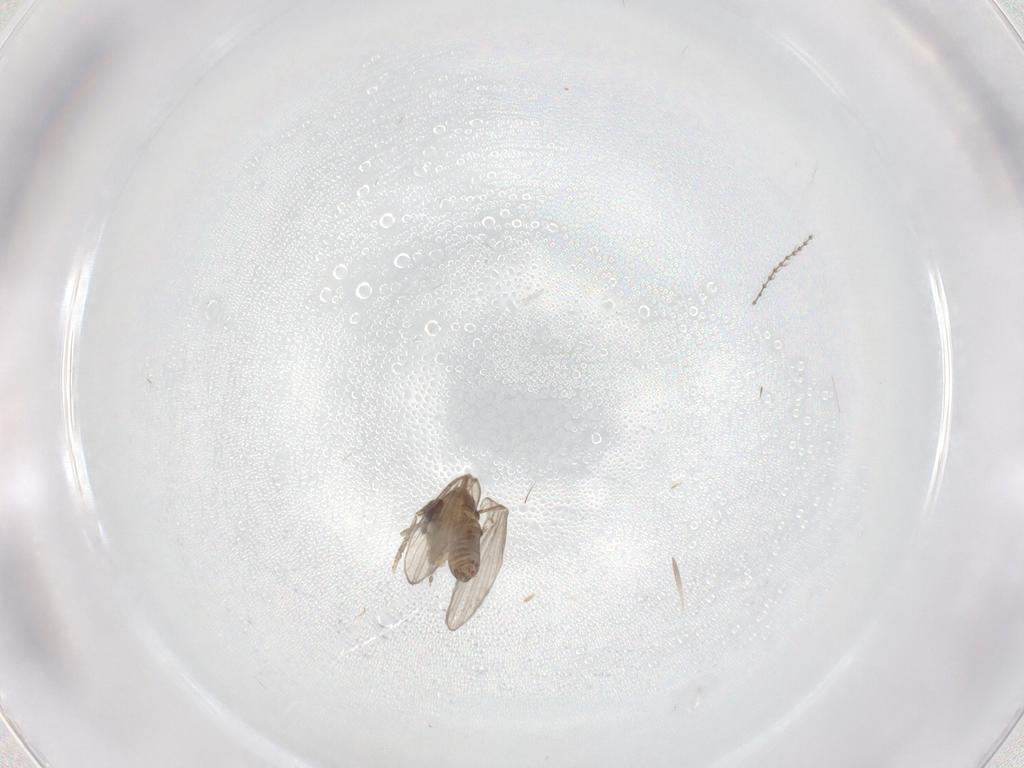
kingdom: Animalia
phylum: Arthropoda
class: Insecta
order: Diptera
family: Cecidomyiidae
